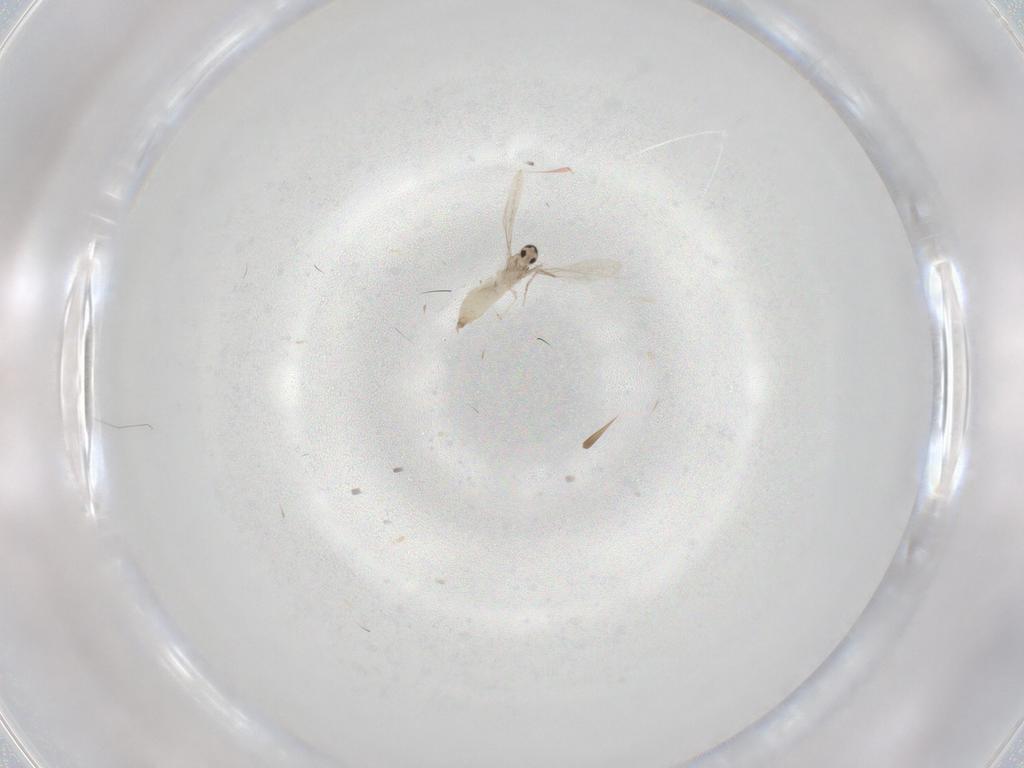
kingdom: Animalia
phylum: Arthropoda
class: Insecta
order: Diptera
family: Cecidomyiidae
